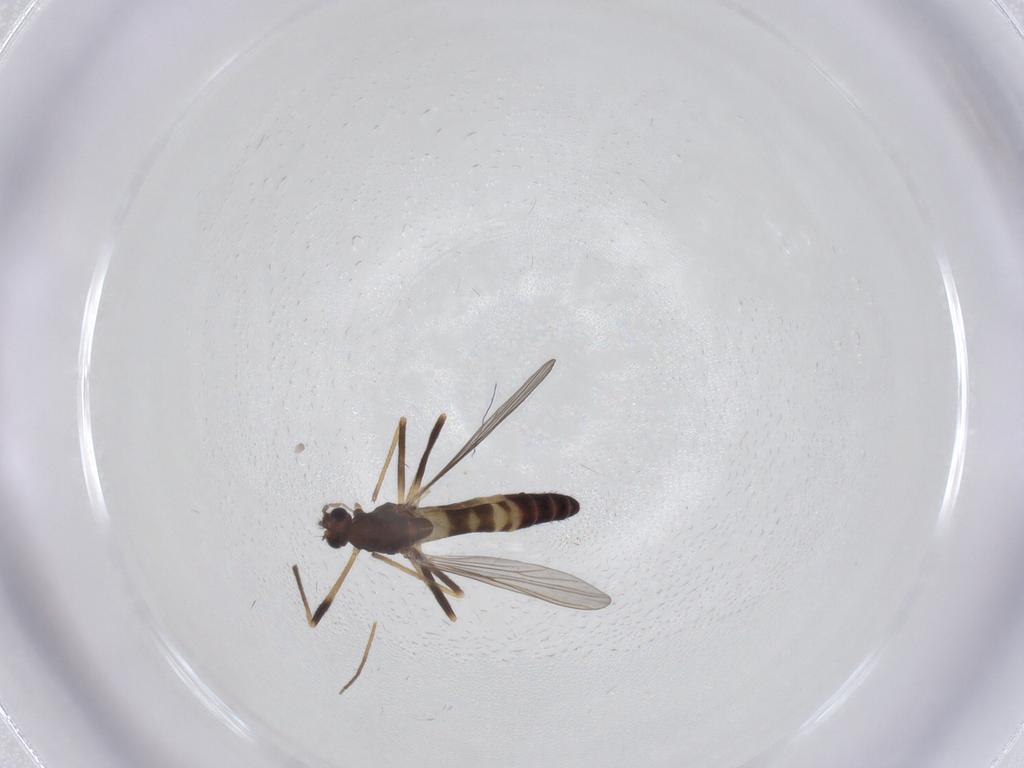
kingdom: Animalia
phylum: Arthropoda
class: Insecta
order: Diptera
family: Chironomidae
